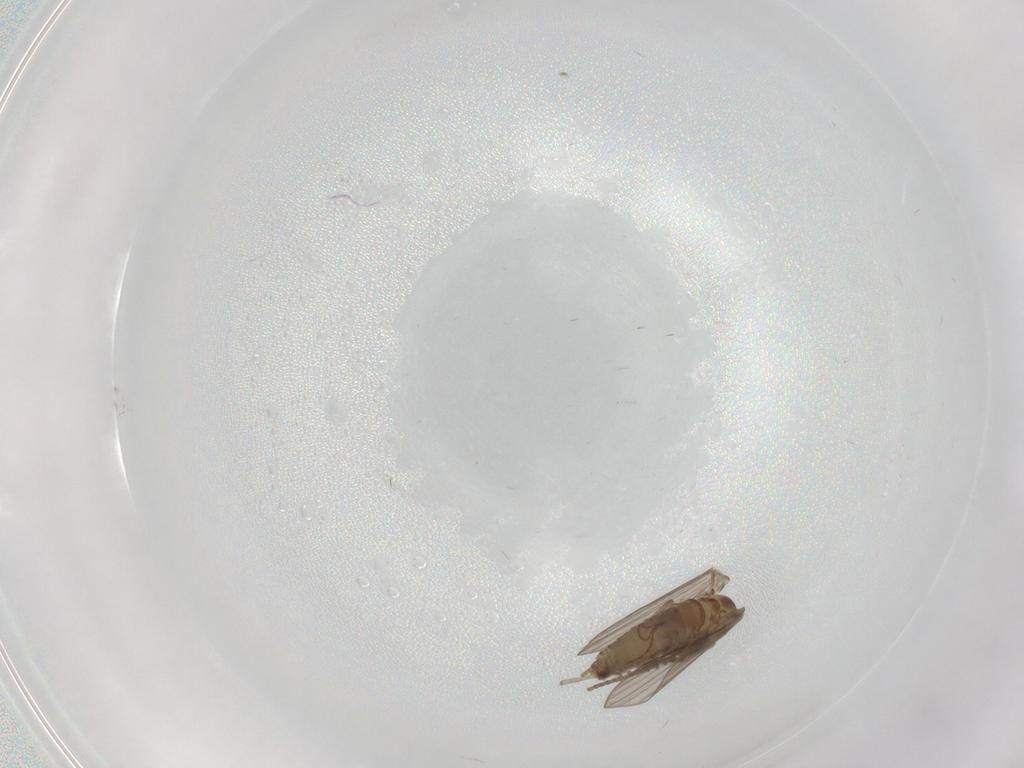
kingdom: Animalia
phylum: Arthropoda
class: Insecta
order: Diptera
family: Psychodidae
